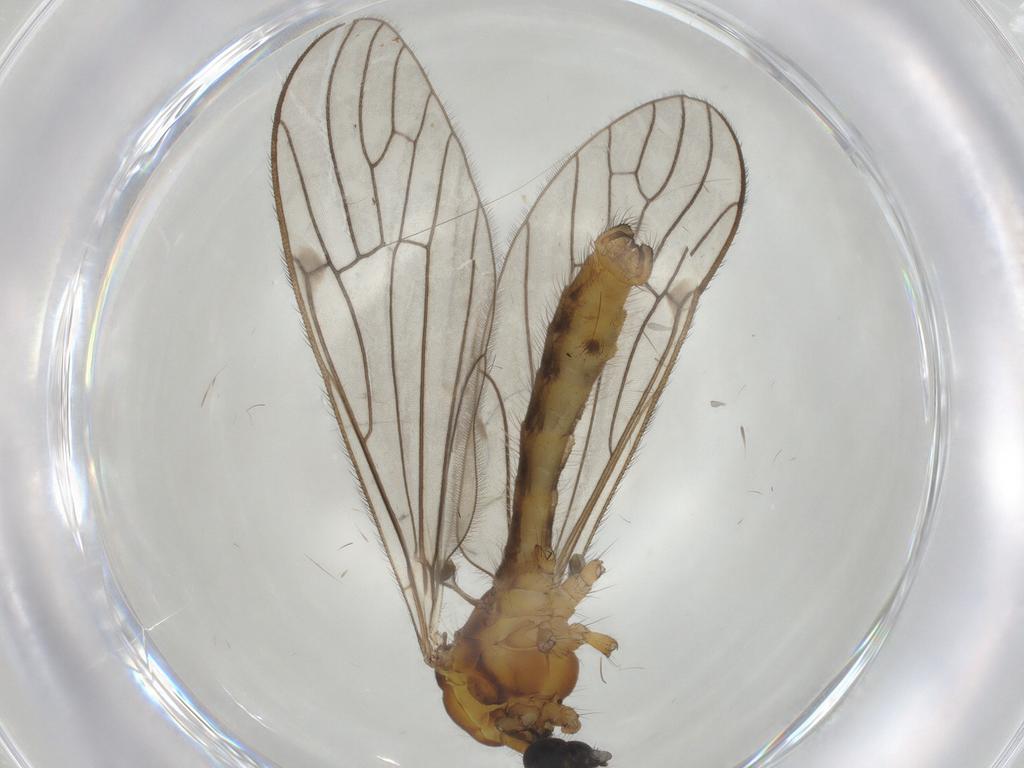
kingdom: Animalia
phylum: Arthropoda
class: Insecta
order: Diptera
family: Limoniidae
